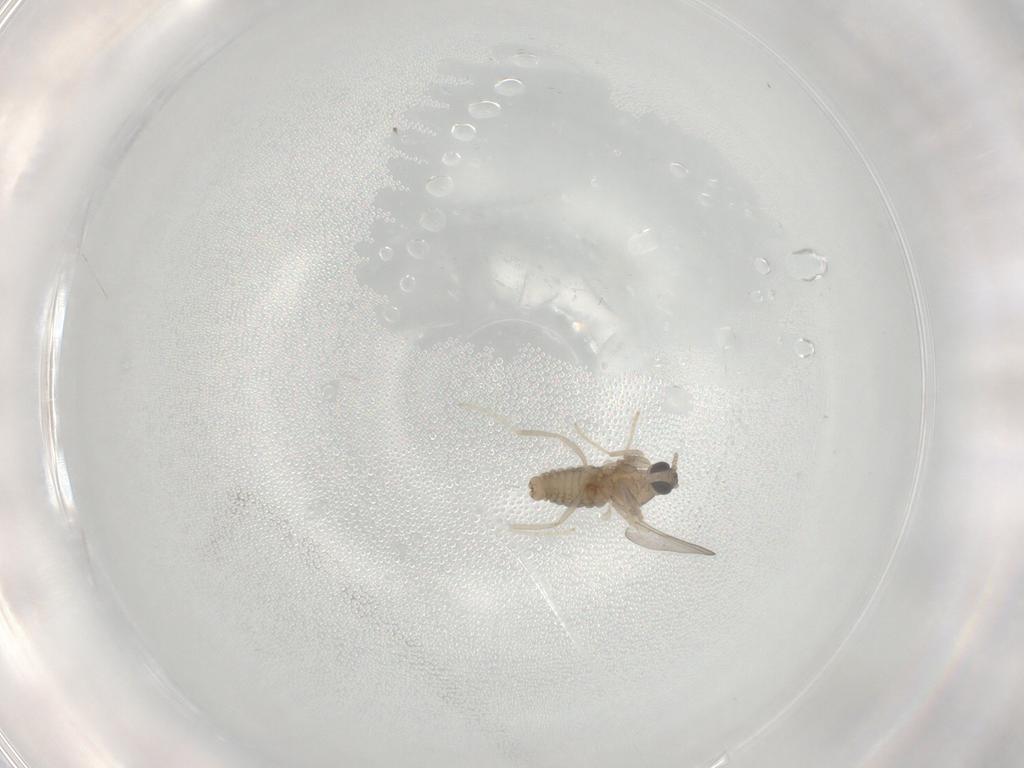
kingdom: Animalia
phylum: Arthropoda
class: Insecta
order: Diptera
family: Cecidomyiidae
